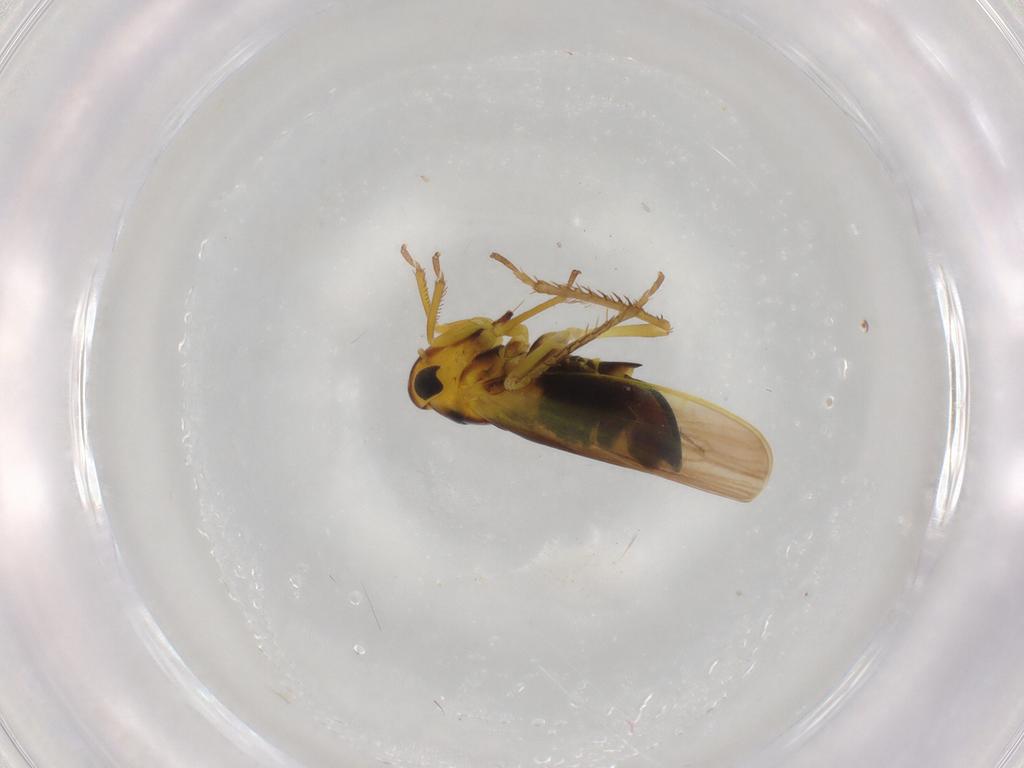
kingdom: Animalia
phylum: Arthropoda
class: Insecta
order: Hemiptera
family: Cicadellidae
